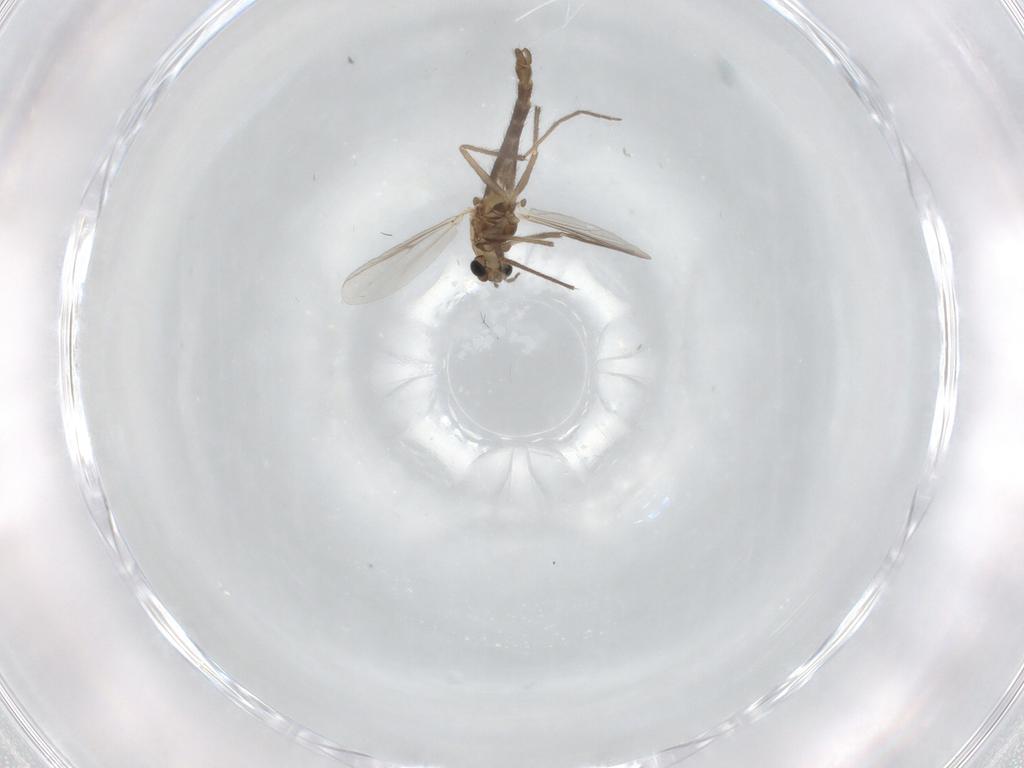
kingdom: Animalia
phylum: Arthropoda
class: Insecta
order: Diptera
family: Chironomidae
